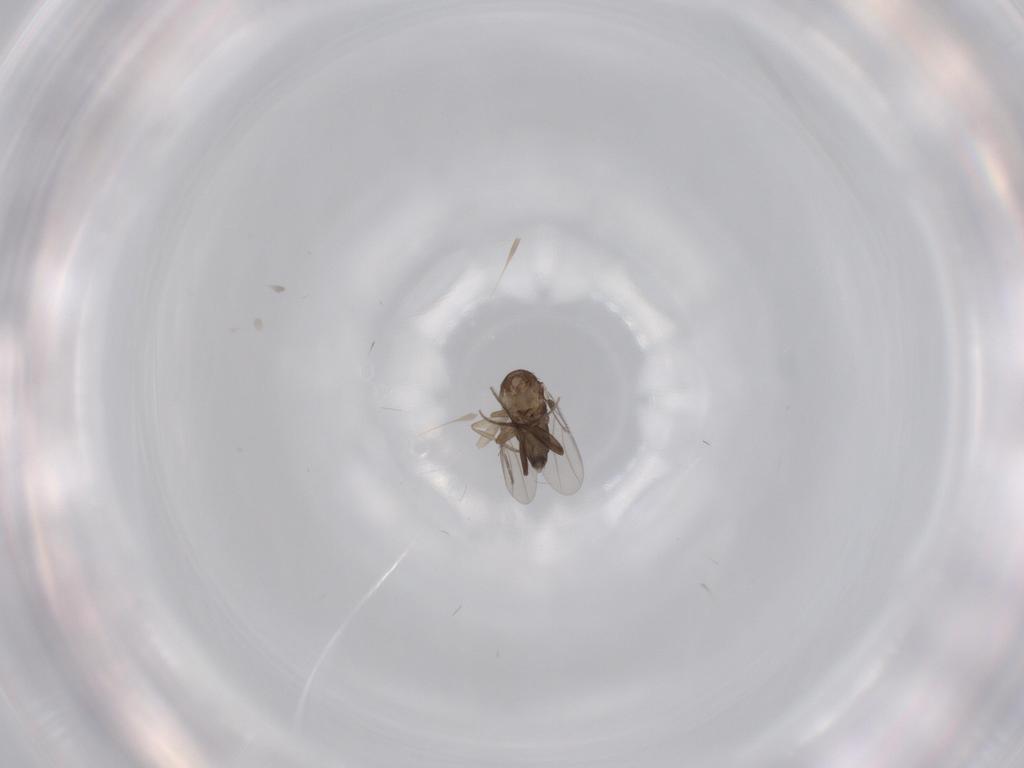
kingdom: Animalia
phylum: Arthropoda
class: Insecta
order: Diptera
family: Phoridae
